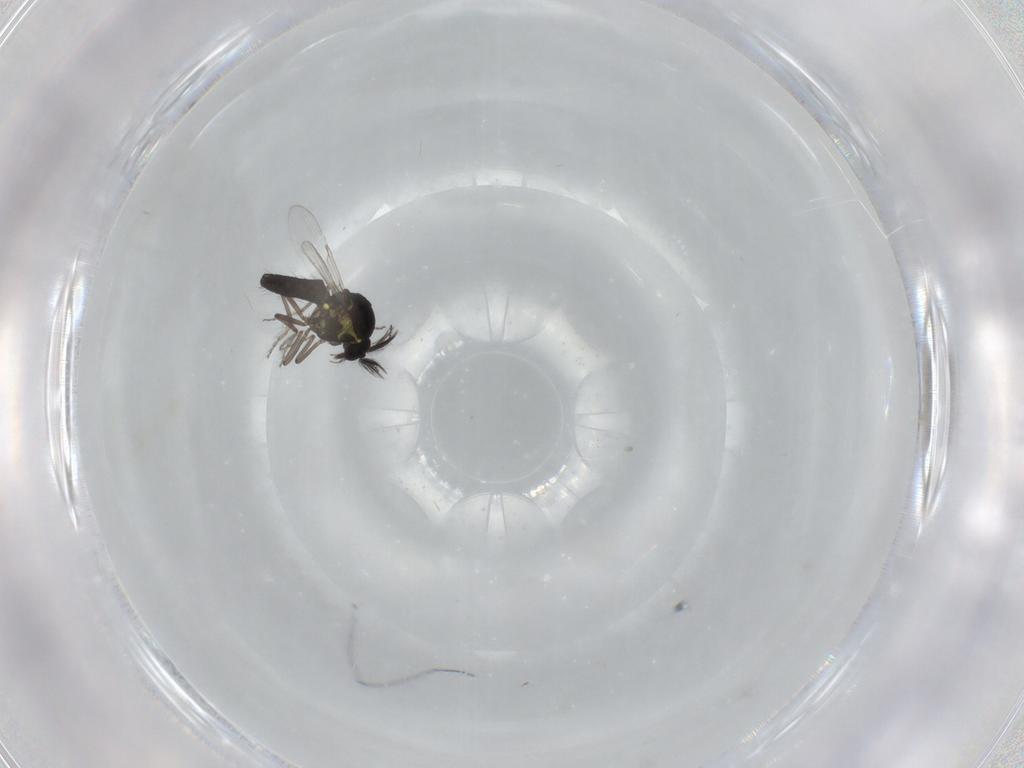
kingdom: Animalia
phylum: Arthropoda
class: Insecta
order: Diptera
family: Ceratopogonidae
